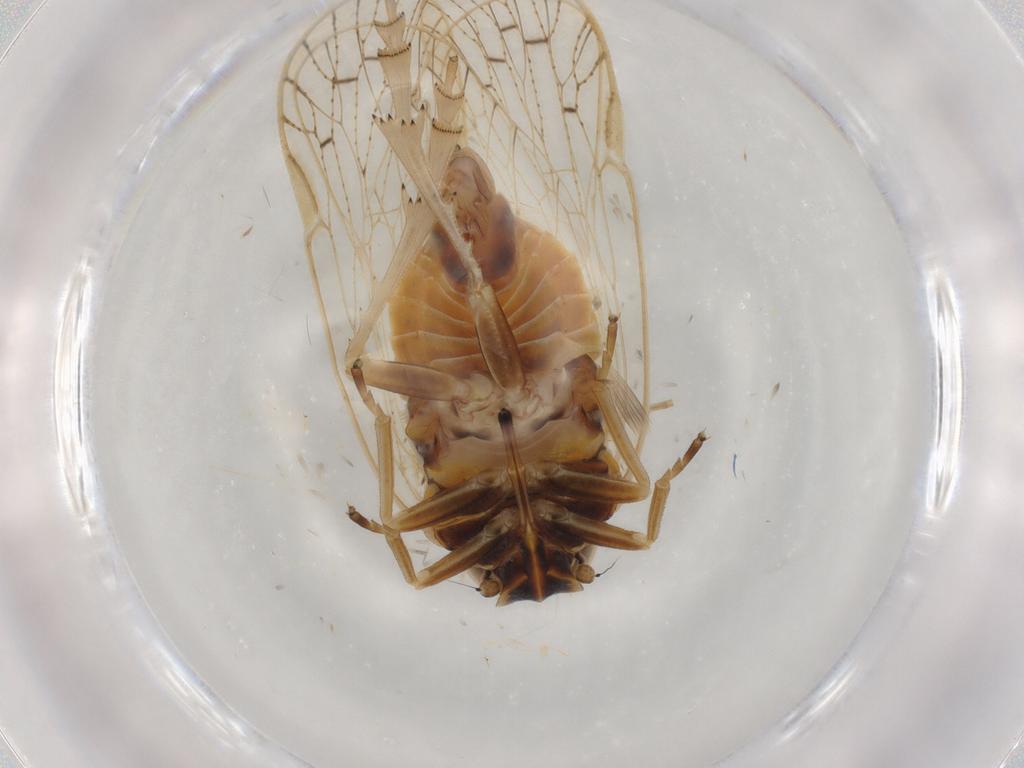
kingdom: Animalia
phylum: Arthropoda
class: Insecta
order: Hemiptera
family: Cixiidae
